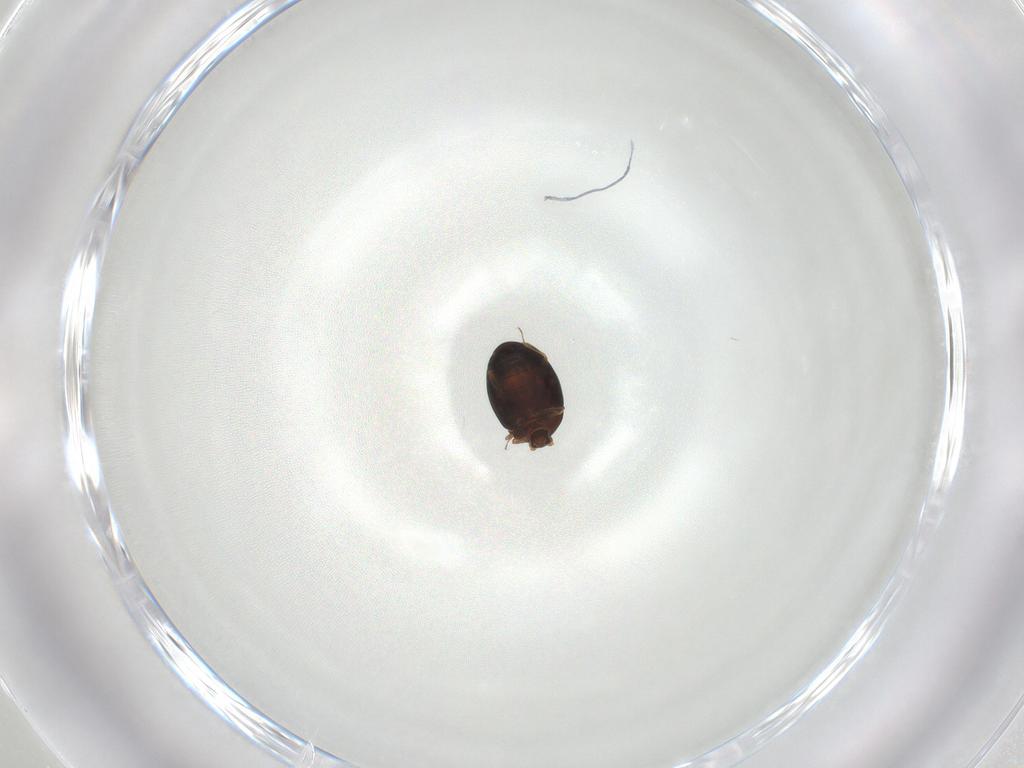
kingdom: Animalia
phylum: Arthropoda
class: Insecta
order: Coleoptera
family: Corylophidae
